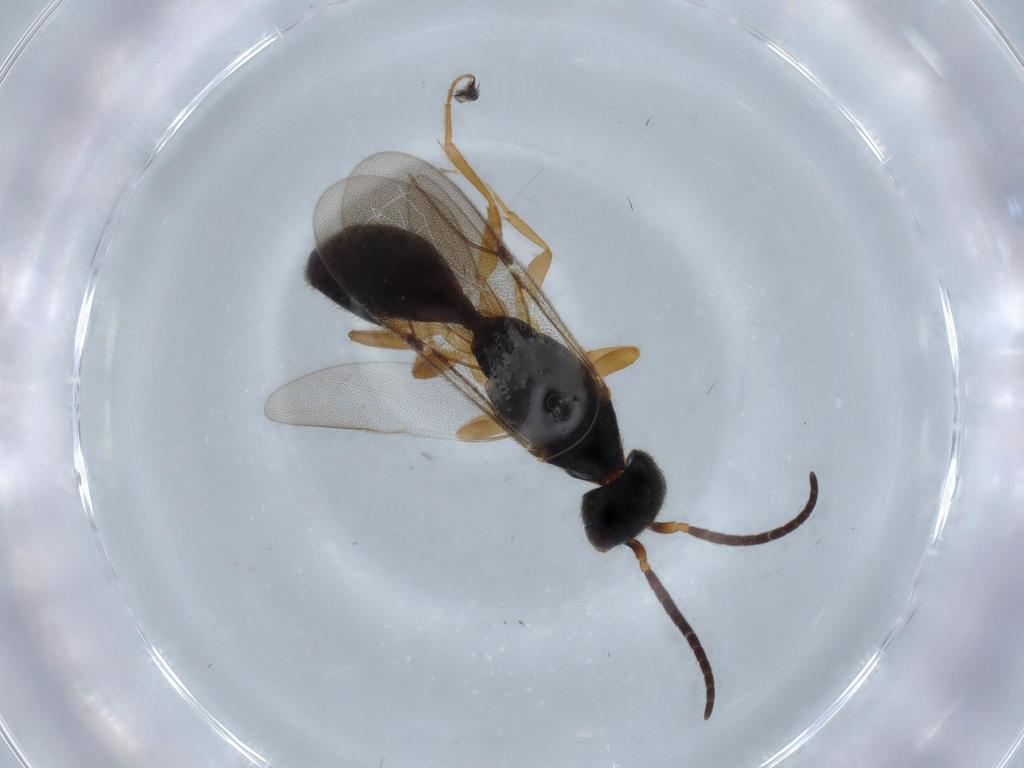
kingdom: Animalia
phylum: Arthropoda
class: Insecta
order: Hymenoptera
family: Bethylidae
